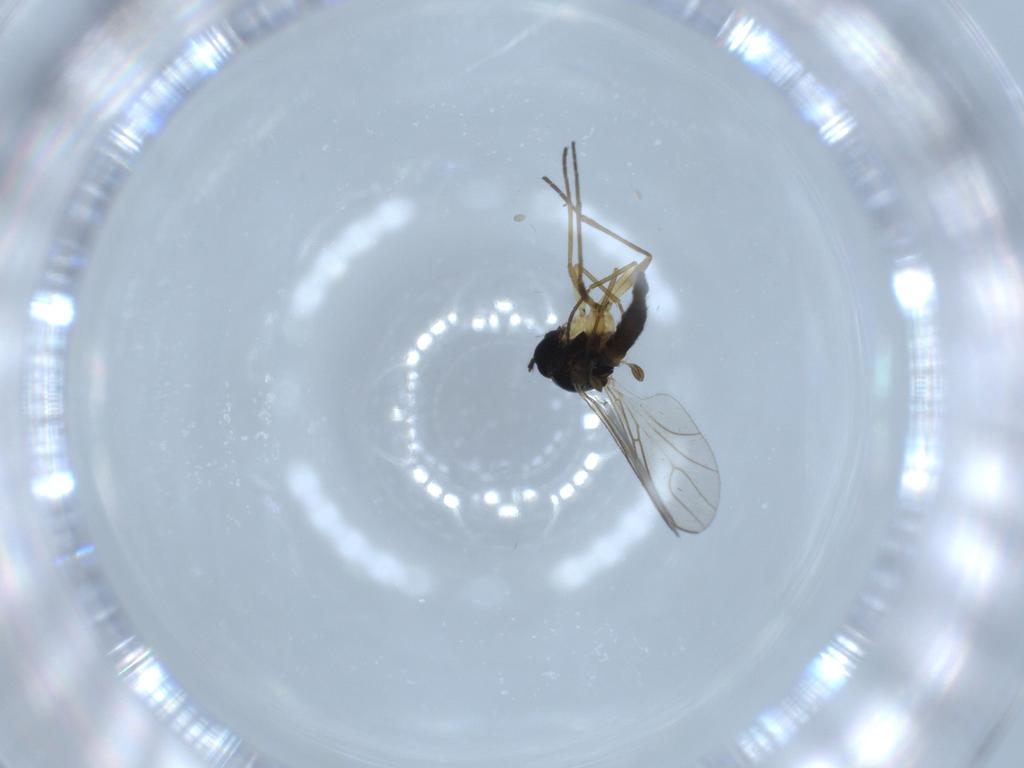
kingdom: Animalia
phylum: Arthropoda
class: Insecta
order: Diptera
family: Sciaridae
